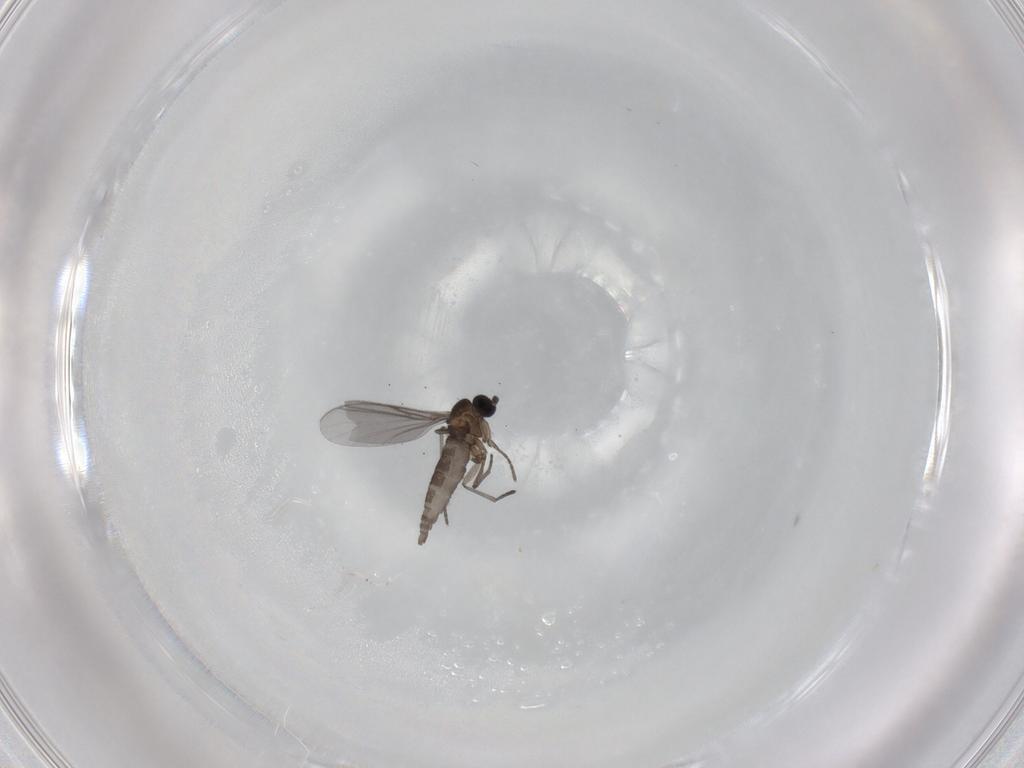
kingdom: Animalia
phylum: Arthropoda
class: Insecta
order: Diptera
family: Sciaridae
